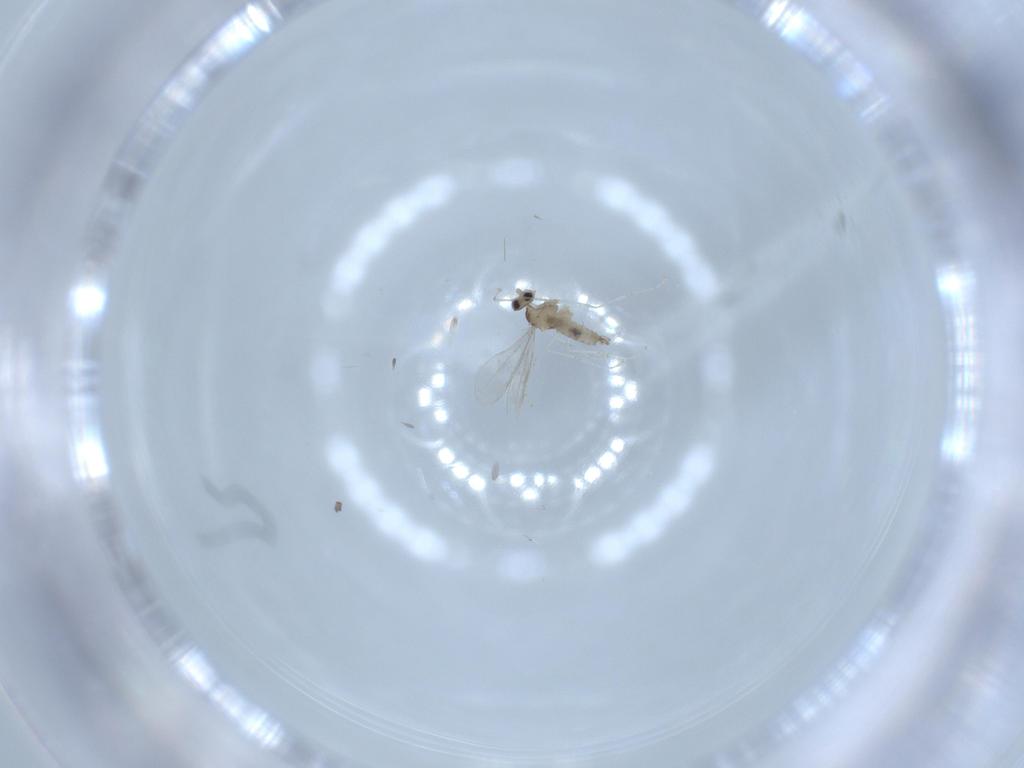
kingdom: Animalia
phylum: Arthropoda
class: Insecta
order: Diptera
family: Cecidomyiidae
